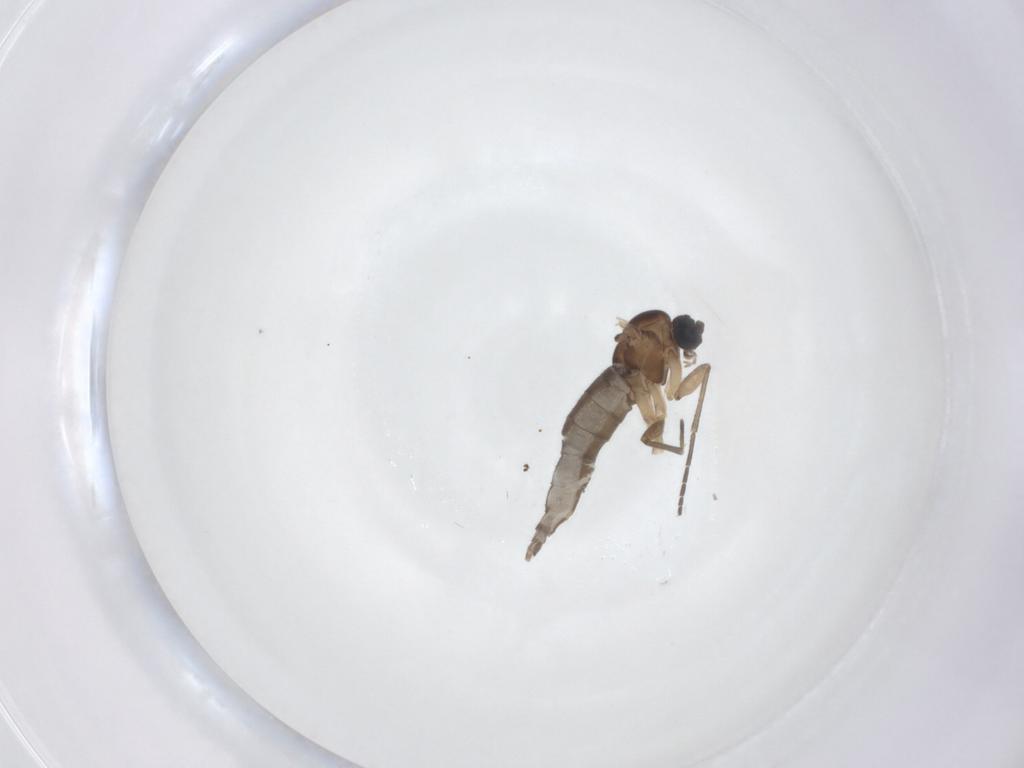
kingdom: Animalia
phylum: Arthropoda
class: Insecta
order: Diptera
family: Sciaridae
